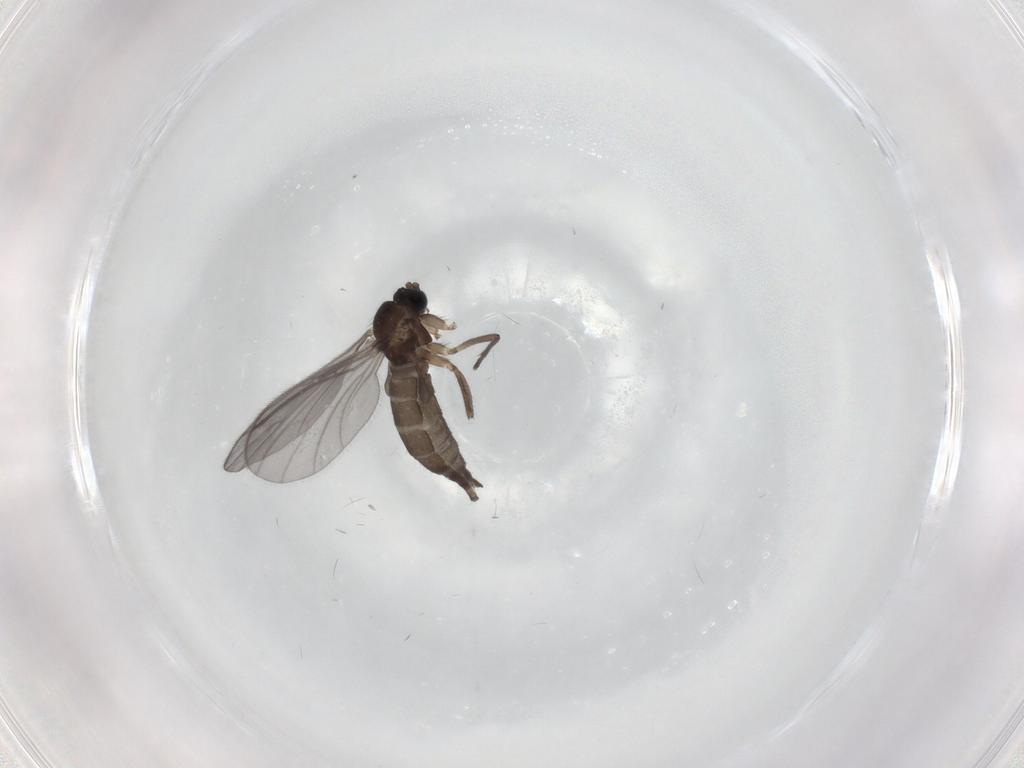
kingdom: Animalia
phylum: Arthropoda
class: Insecta
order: Diptera
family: Sciaridae
